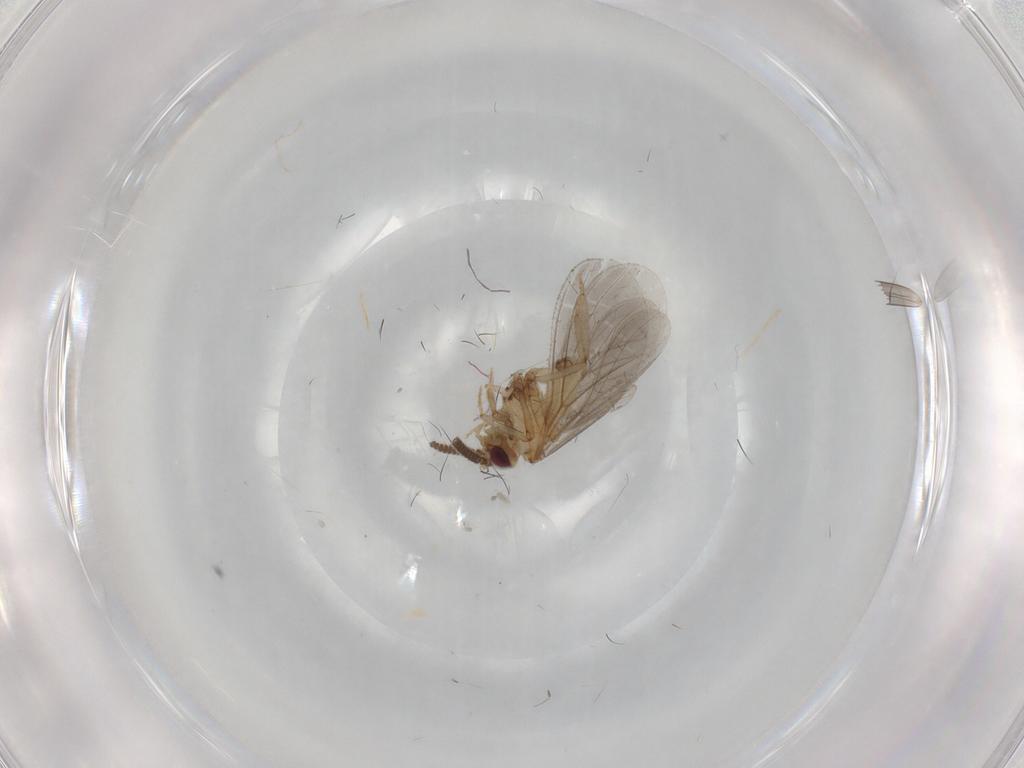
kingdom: Animalia
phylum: Arthropoda
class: Insecta
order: Neuroptera
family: Coniopterygidae
